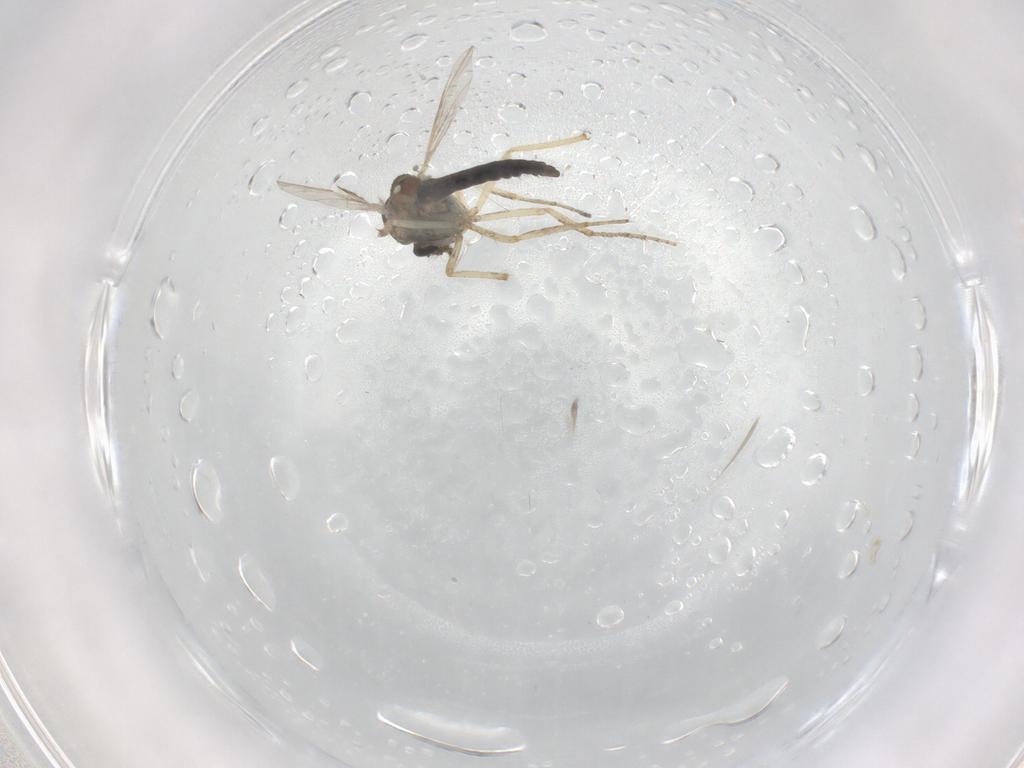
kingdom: Animalia
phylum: Arthropoda
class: Insecta
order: Diptera
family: Ceratopogonidae
